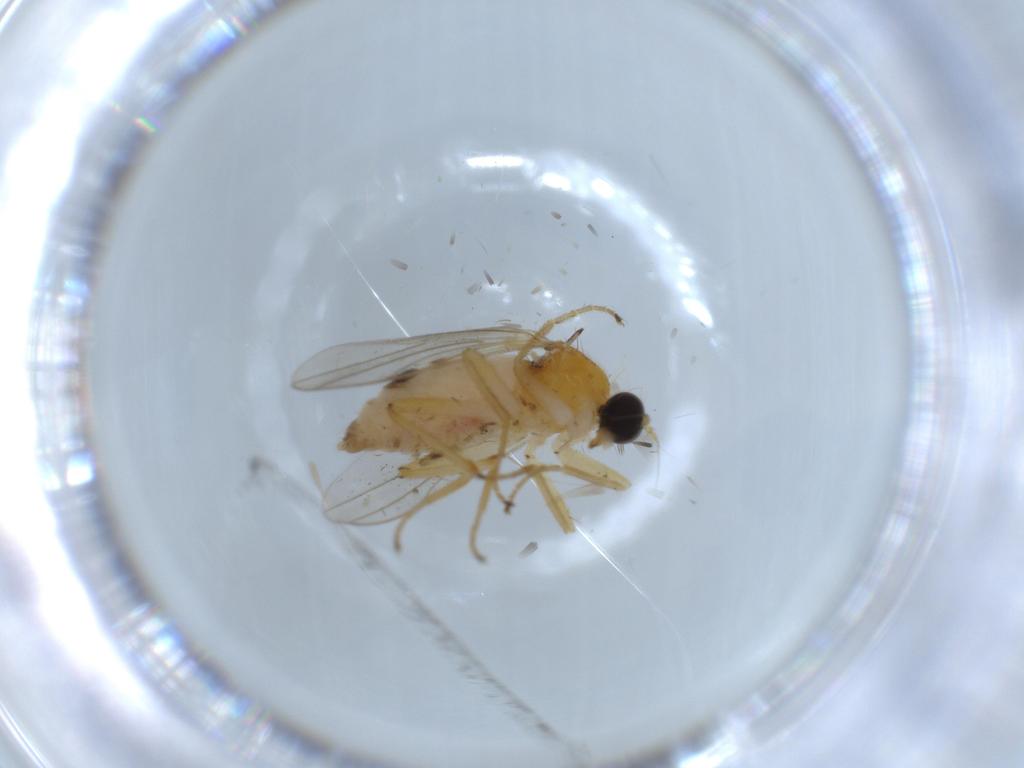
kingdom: Animalia
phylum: Arthropoda
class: Insecta
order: Diptera
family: Hybotidae
